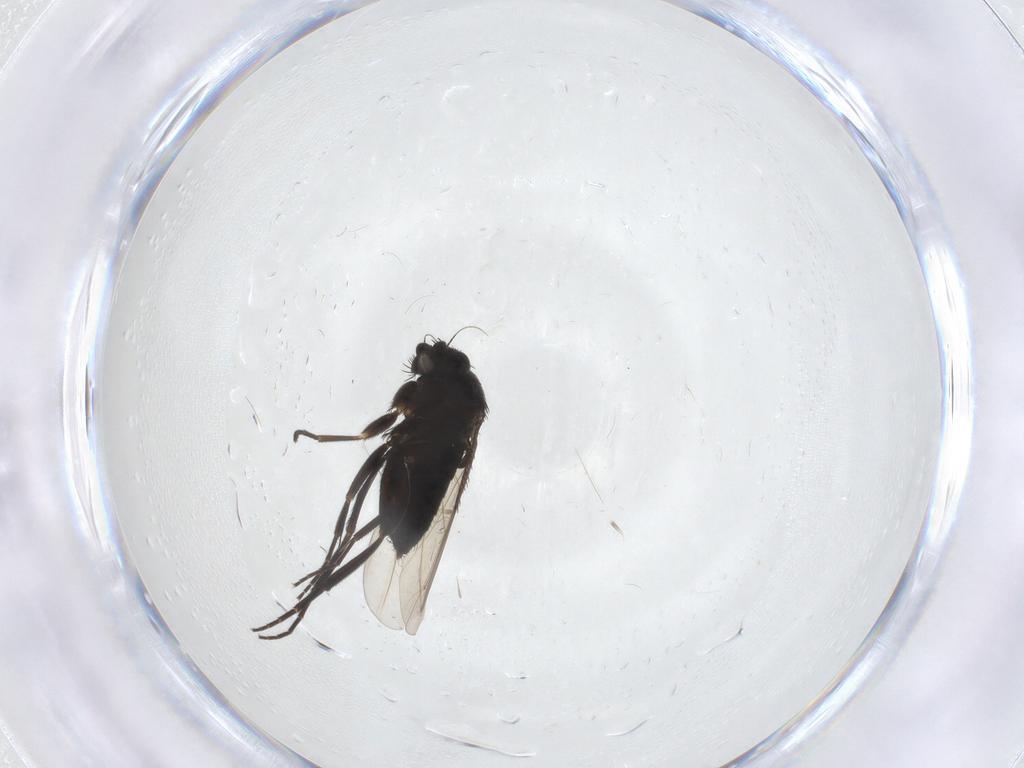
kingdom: Animalia
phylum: Arthropoda
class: Insecta
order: Diptera
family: Phoridae
